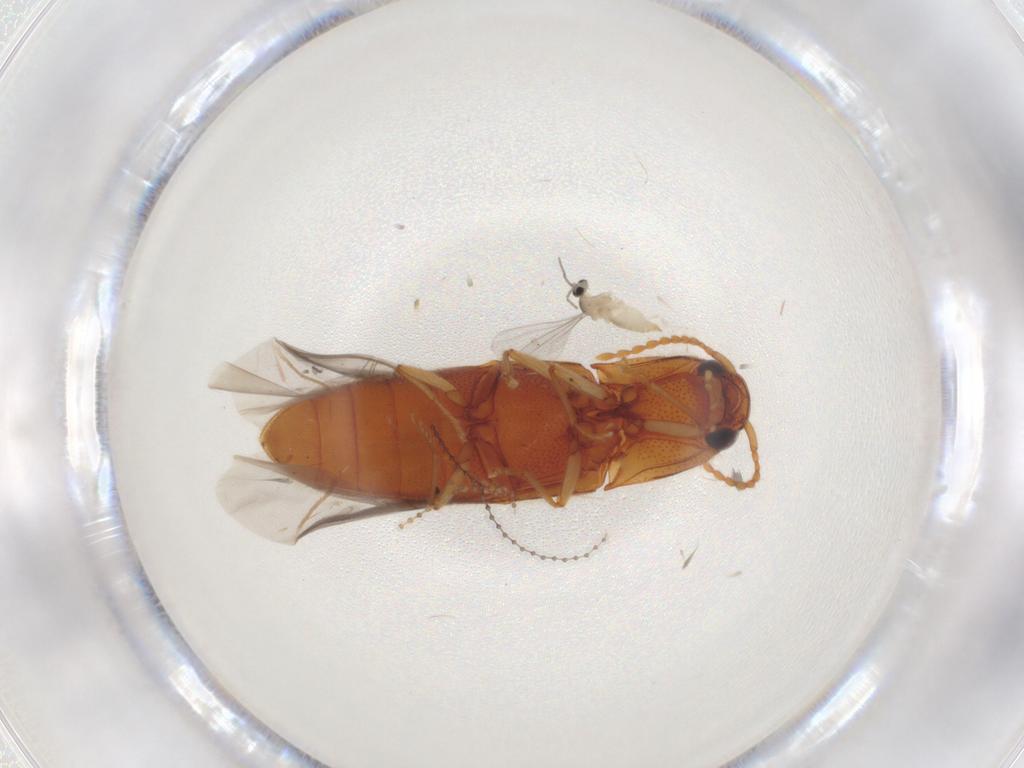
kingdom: Animalia
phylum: Arthropoda
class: Insecta
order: Diptera
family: Cecidomyiidae
